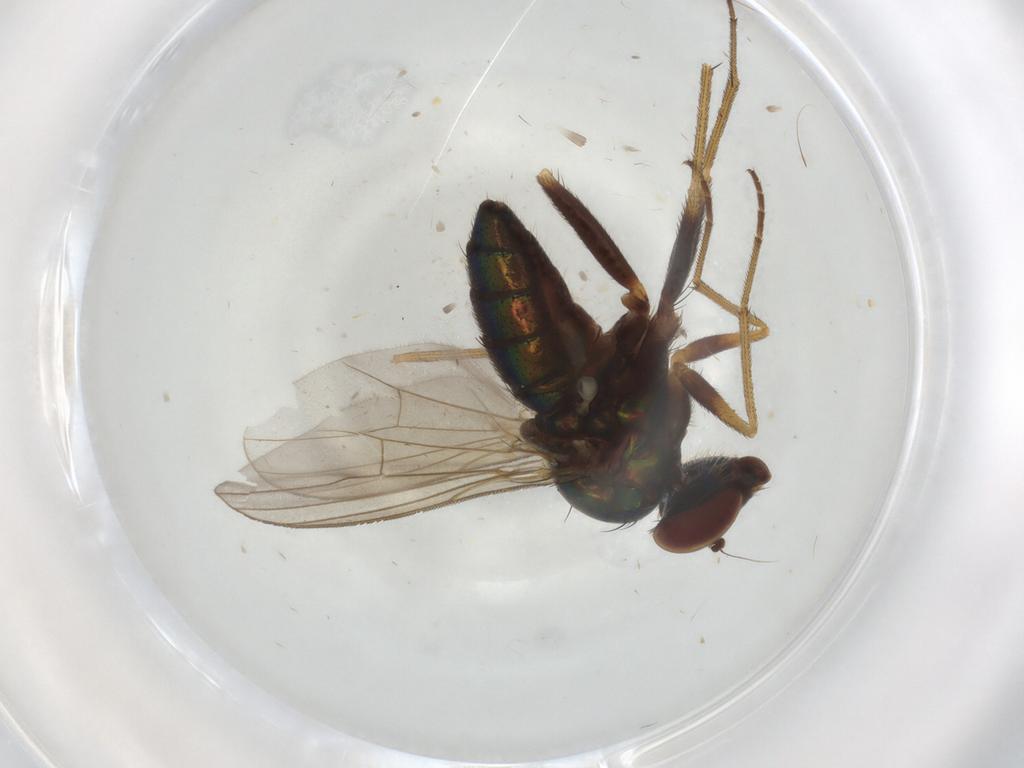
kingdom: Animalia
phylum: Arthropoda
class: Insecta
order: Diptera
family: Dolichopodidae
